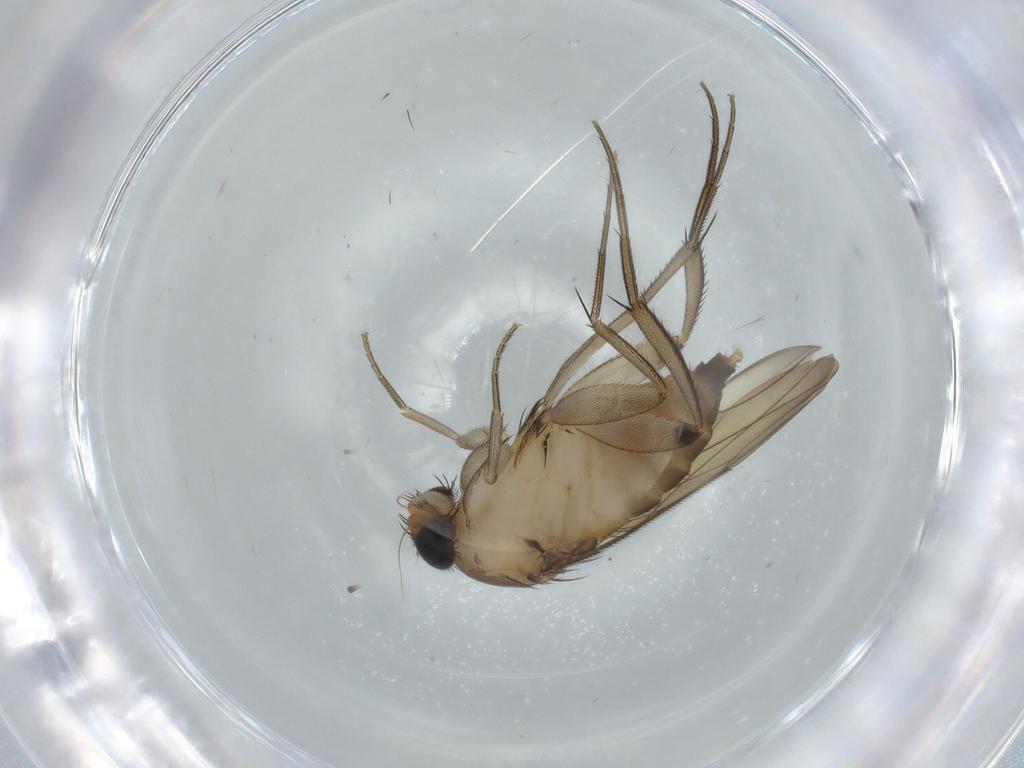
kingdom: Animalia
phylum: Arthropoda
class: Insecta
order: Diptera
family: Phoridae
